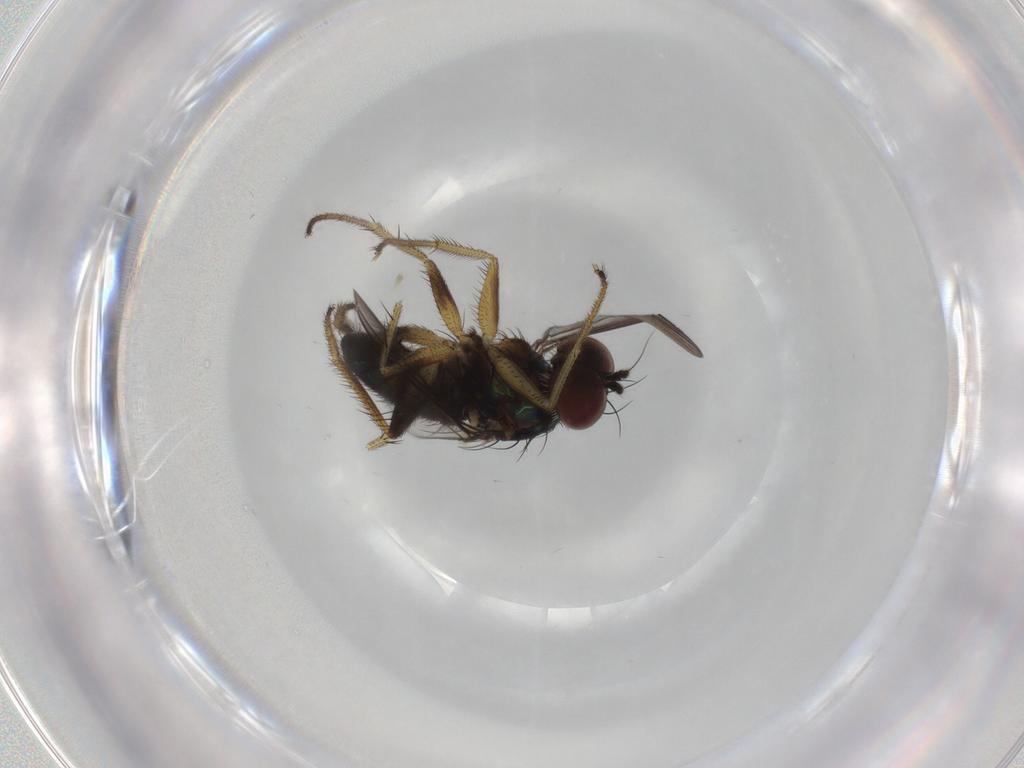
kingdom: Animalia
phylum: Arthropoda
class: Insecta
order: Diptera
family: Dolichopodidae
